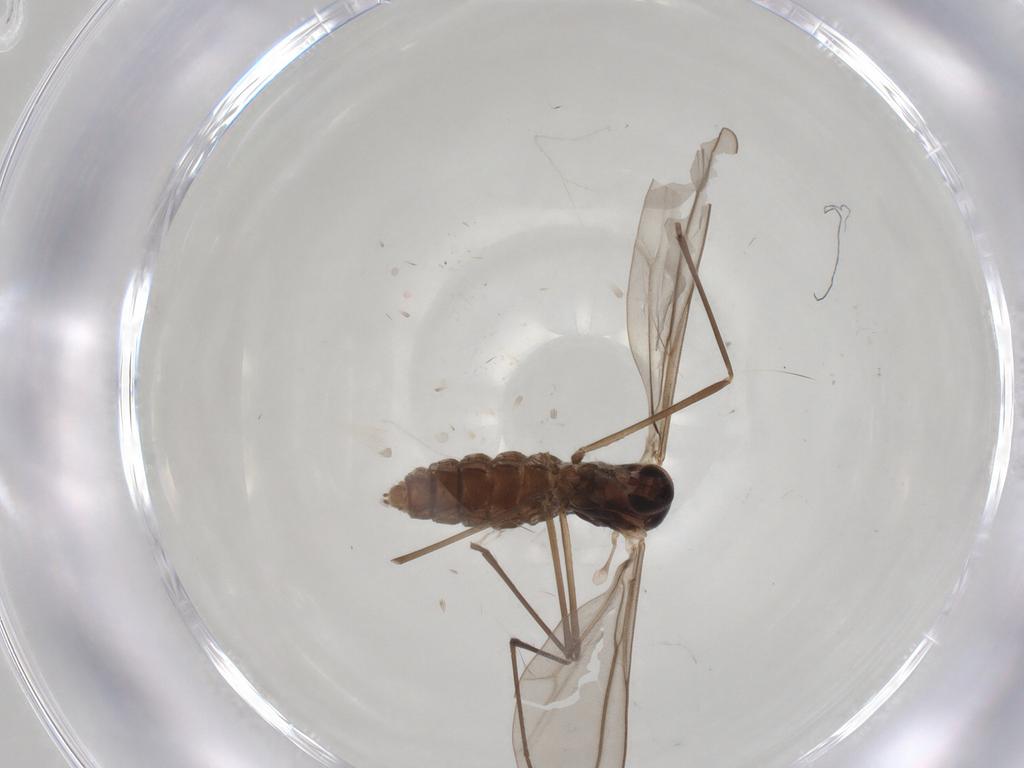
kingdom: Animalia
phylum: Arthropoda
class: Insecta
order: Diptera
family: Cecidomyiidae
